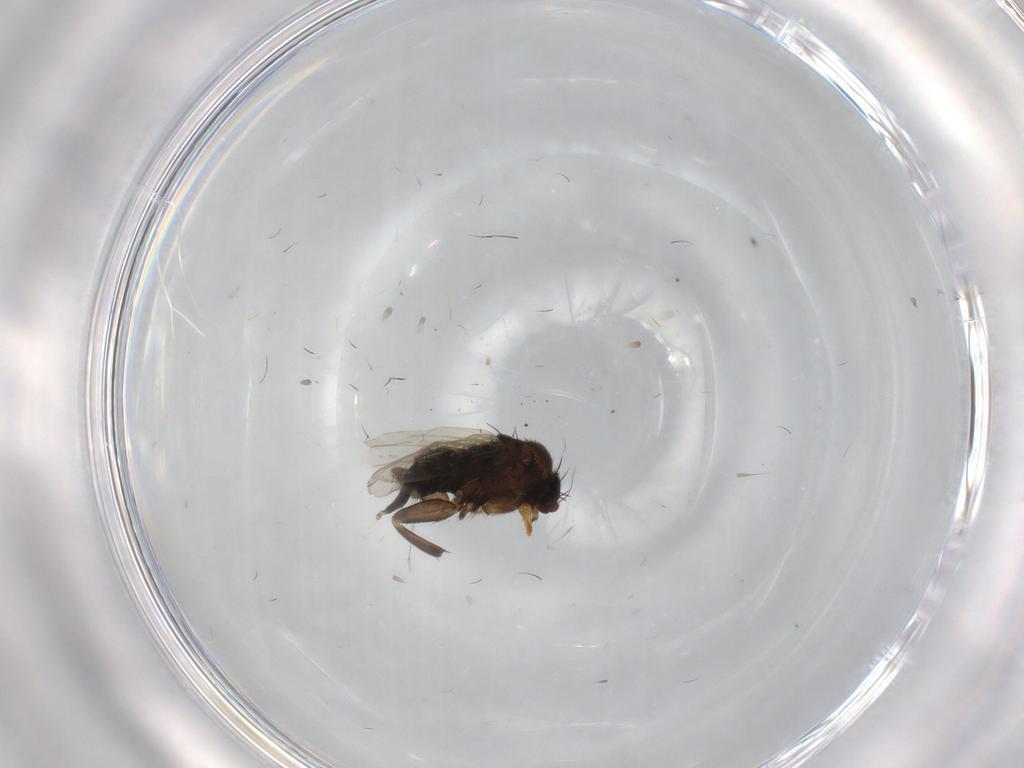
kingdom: Animalia
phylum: Arthropoda
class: Insecta
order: Diptera
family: Phoridae
